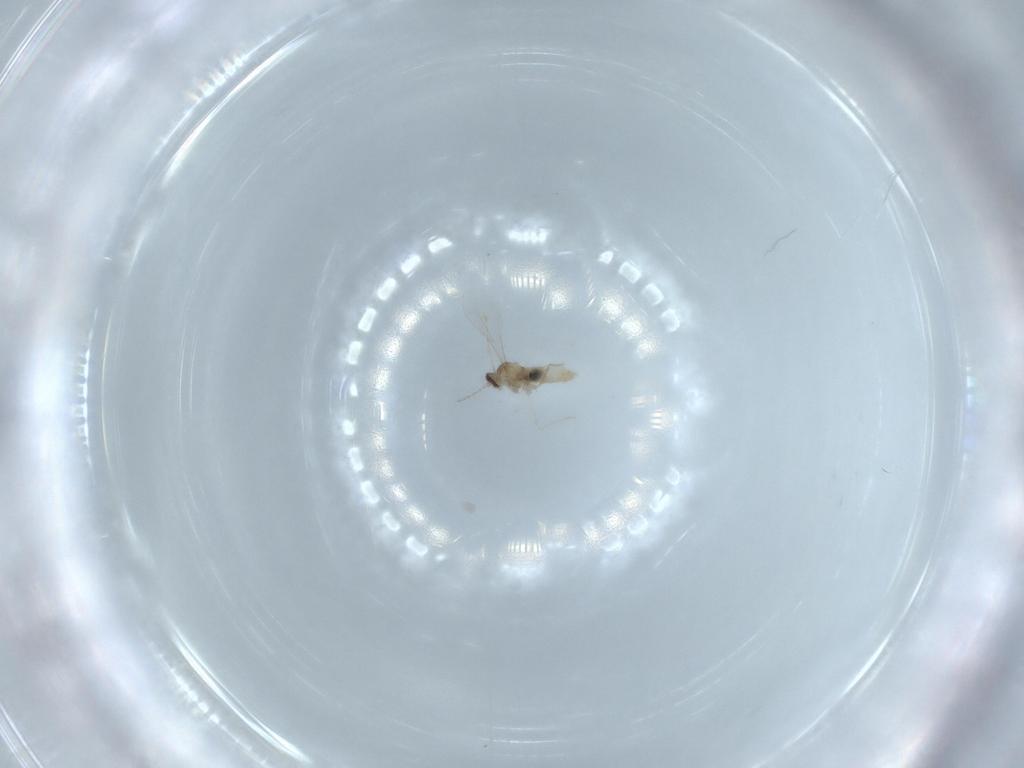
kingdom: Animalia
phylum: Arthropoda
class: Insecta
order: Diptera
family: Cecidomyiidae
